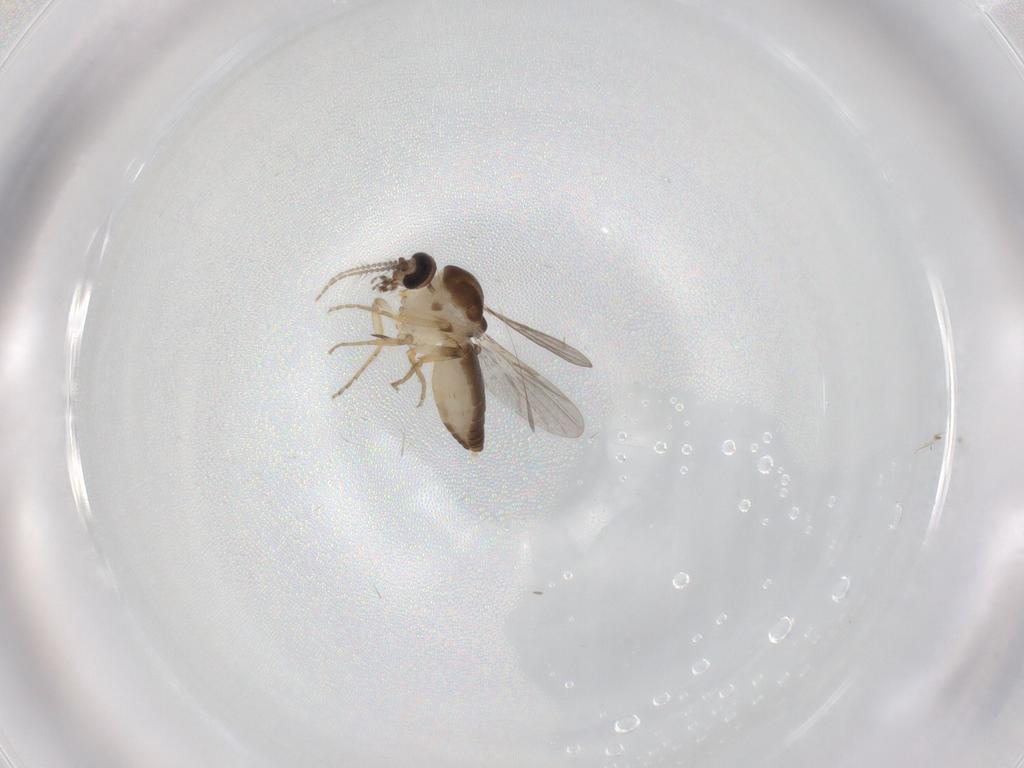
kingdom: Animalia
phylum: Arthropoda
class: Insecta
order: Diptera
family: Ceratopogonidae
